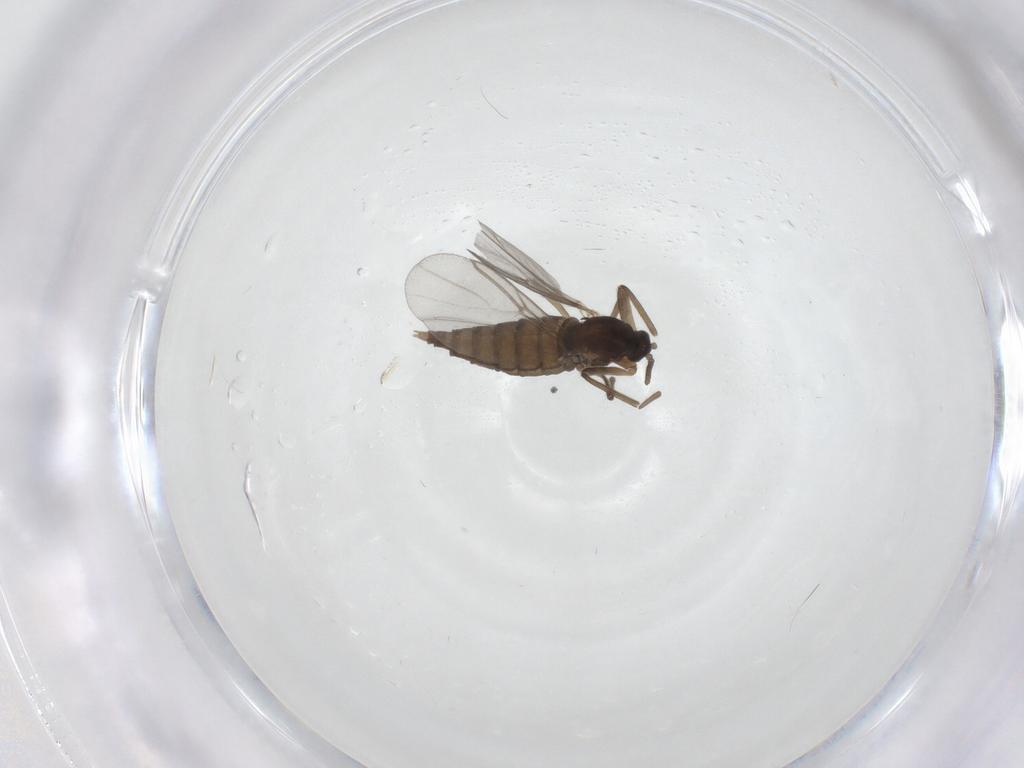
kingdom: Animalia
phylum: Arthropoda
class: Insecta
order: Diptera
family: Cecidomyiidae
